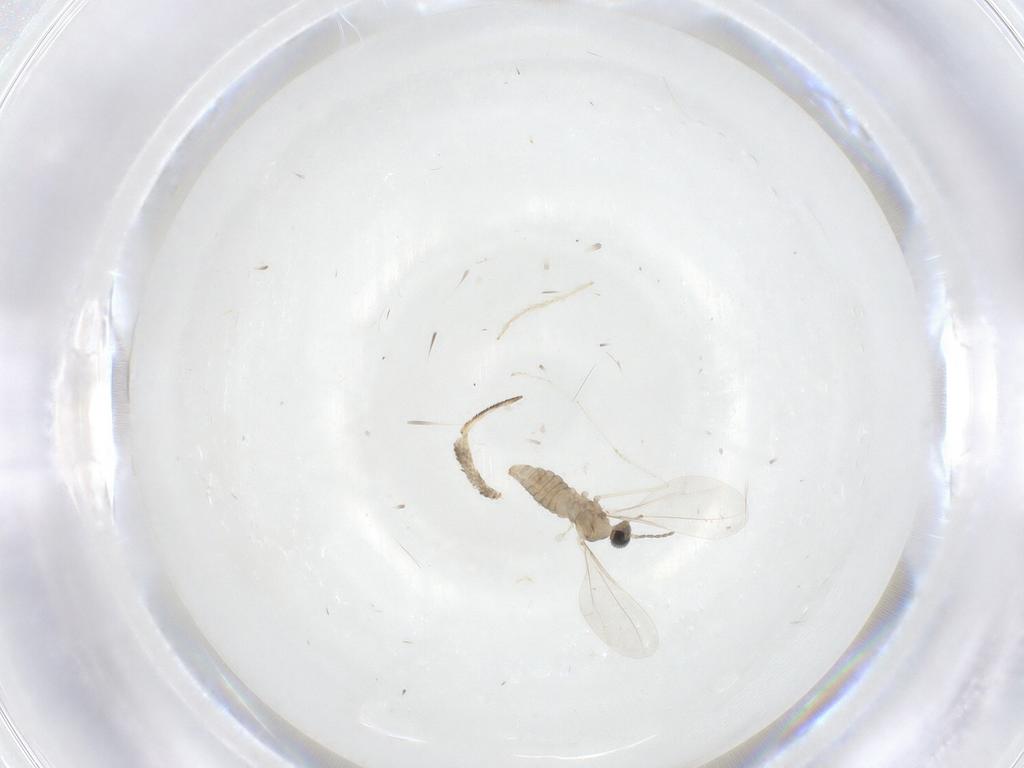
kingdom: Animalia
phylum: Arthropoda
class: Insecta
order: Diptera
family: Cecidomyiidae
